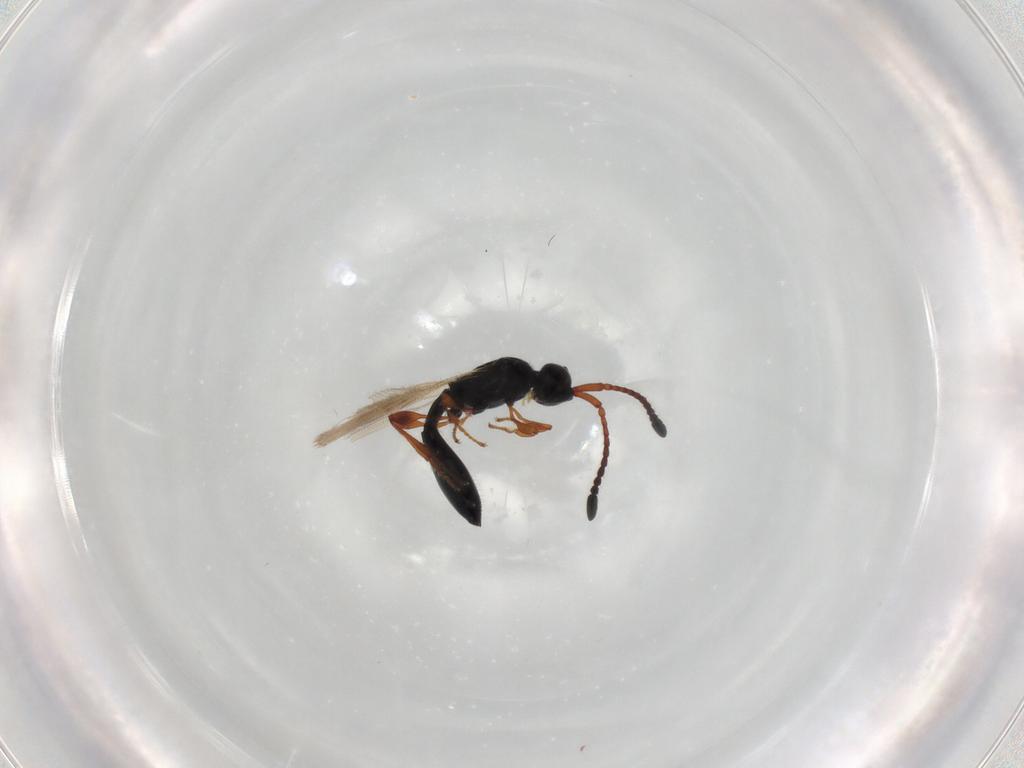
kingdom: Animalia
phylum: Arthropoda
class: Insecta
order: Hymenoptera
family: Diapriidae
